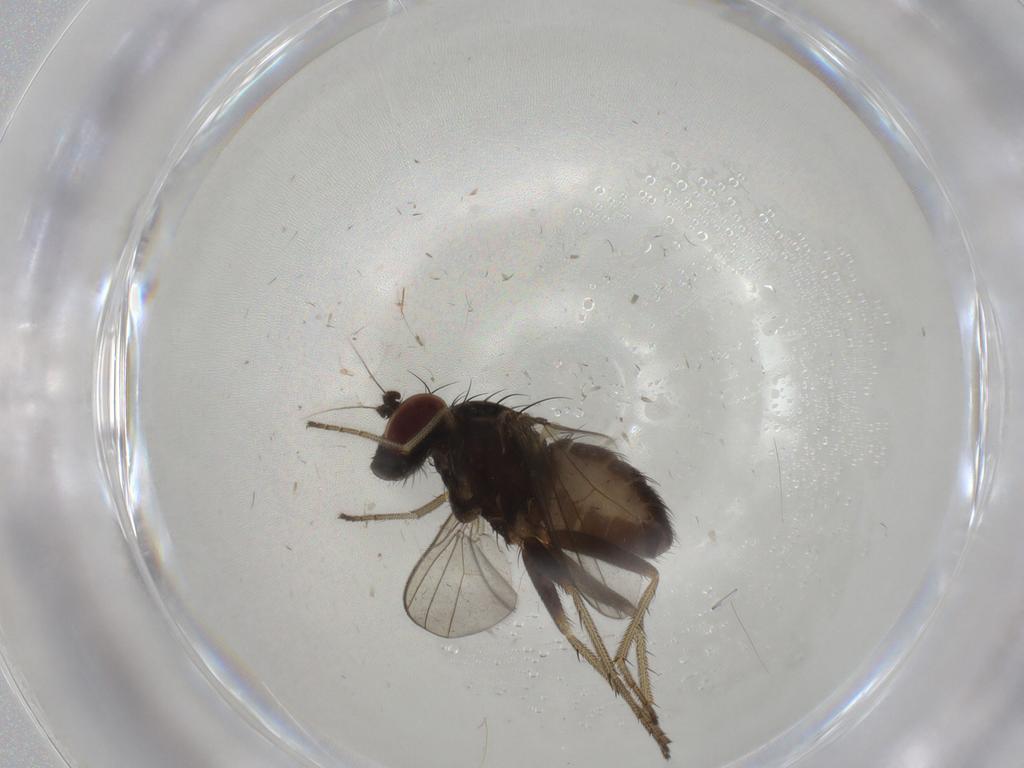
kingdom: Animalia
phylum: Arthropoda
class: Insecta
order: Diptera
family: Dolichopodidae
